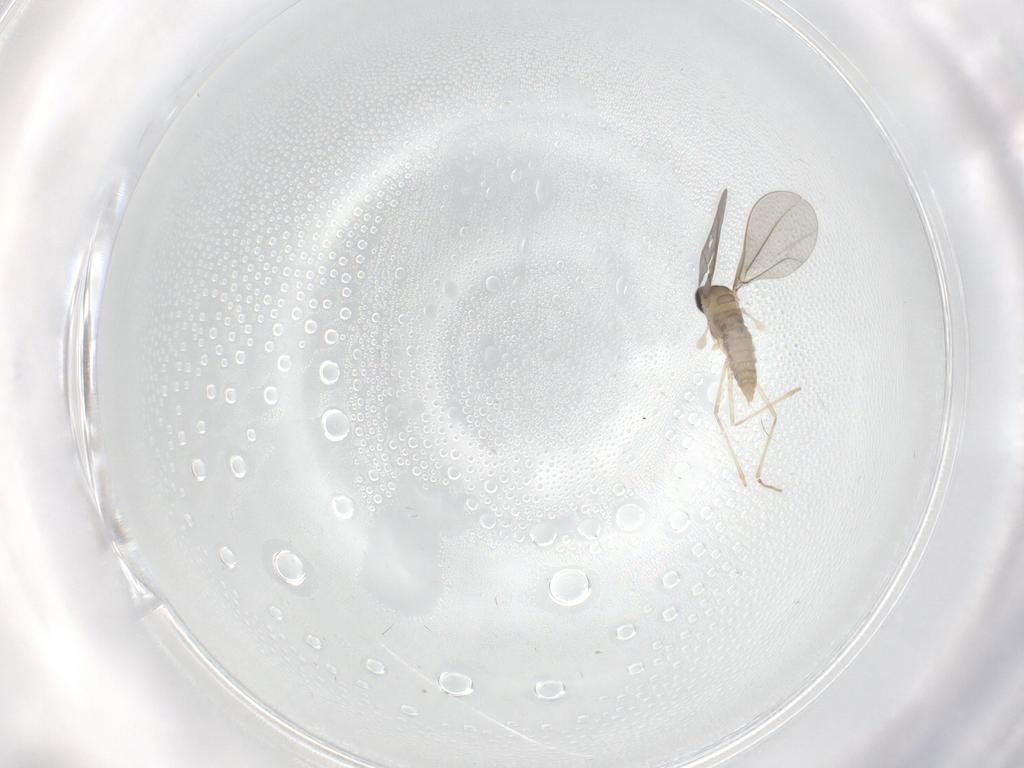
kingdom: Animalia
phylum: Arthropoda
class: Insecta
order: Diptera
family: Cecidomyiidae
